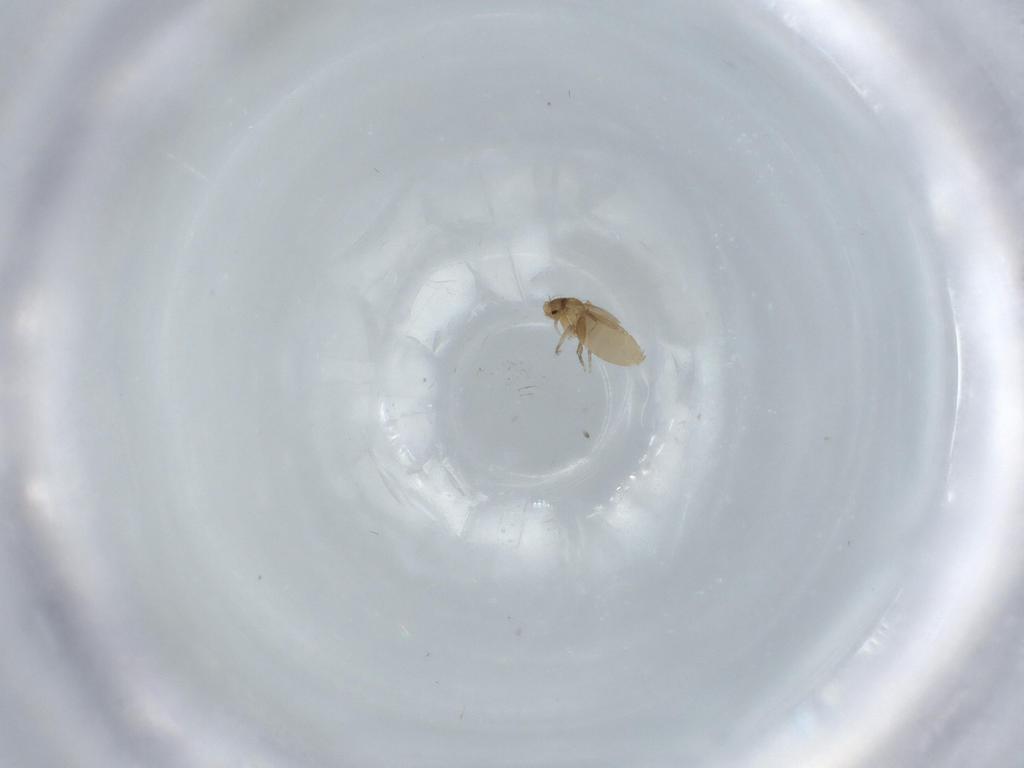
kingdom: Animalia
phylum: Arthropoda
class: Insecta
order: Diptera
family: Phoridae
